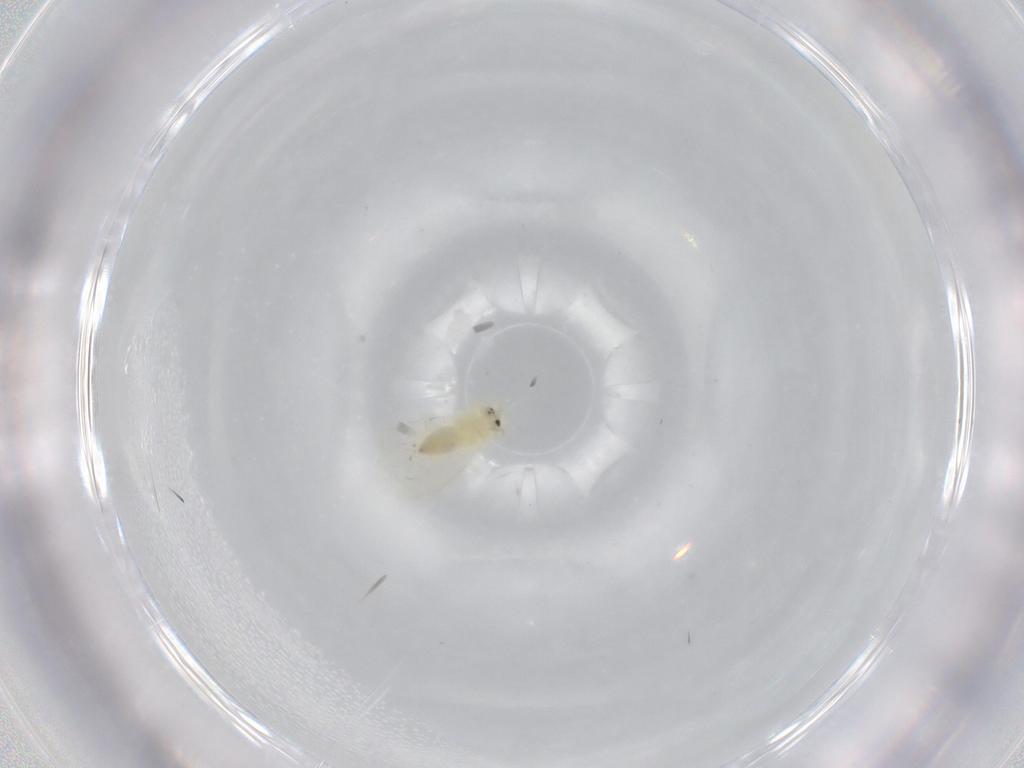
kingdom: Animalia
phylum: Arthropoda
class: Insecta
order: Hemiptera
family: Aleyrodidae
